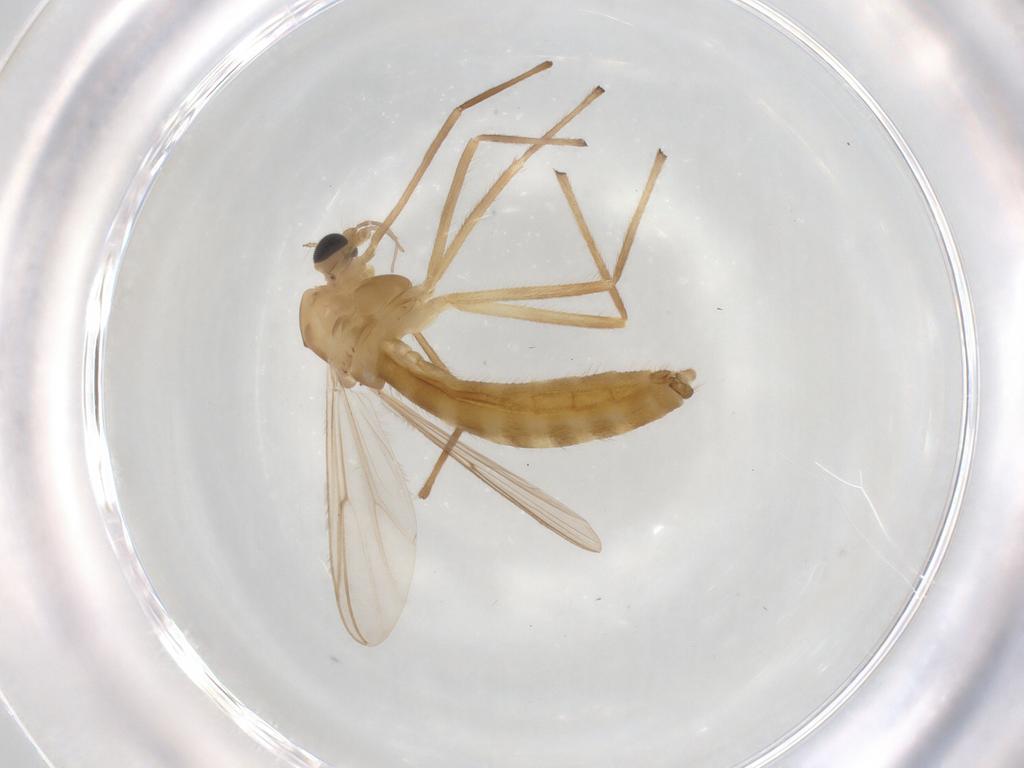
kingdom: Animalia
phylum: Arthropoda
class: Insecta
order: Diptera
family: Chironomidae
